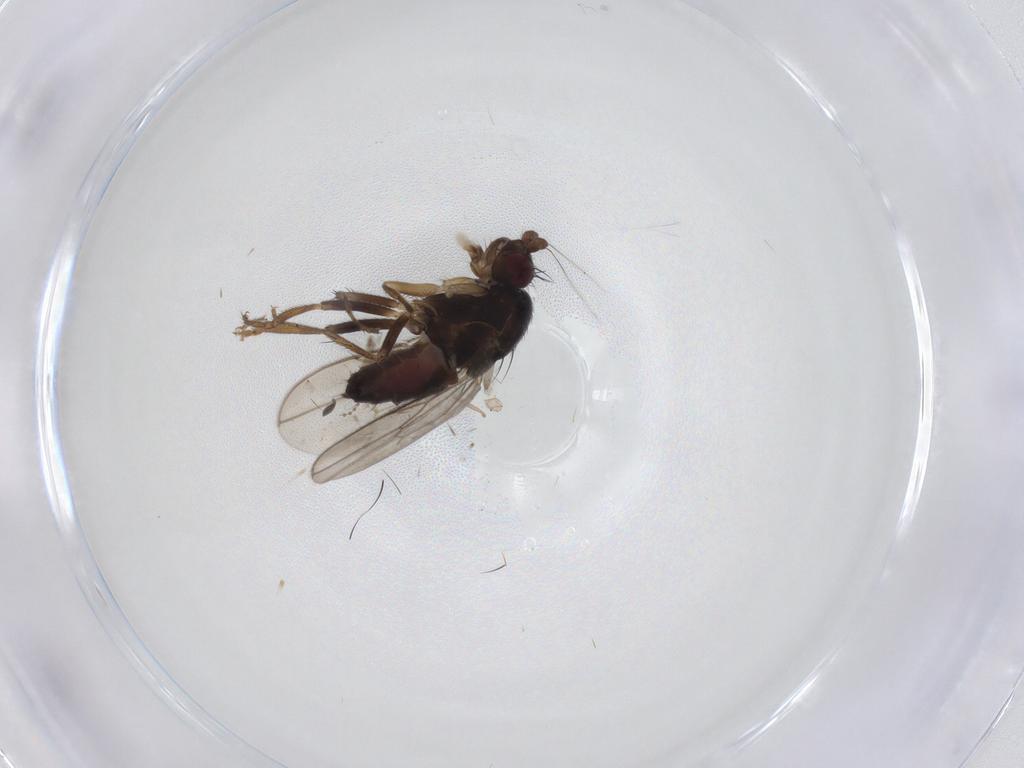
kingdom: Animalia
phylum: Arthropoda
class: Insecta
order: Diptera
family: Sphaeroceridae
